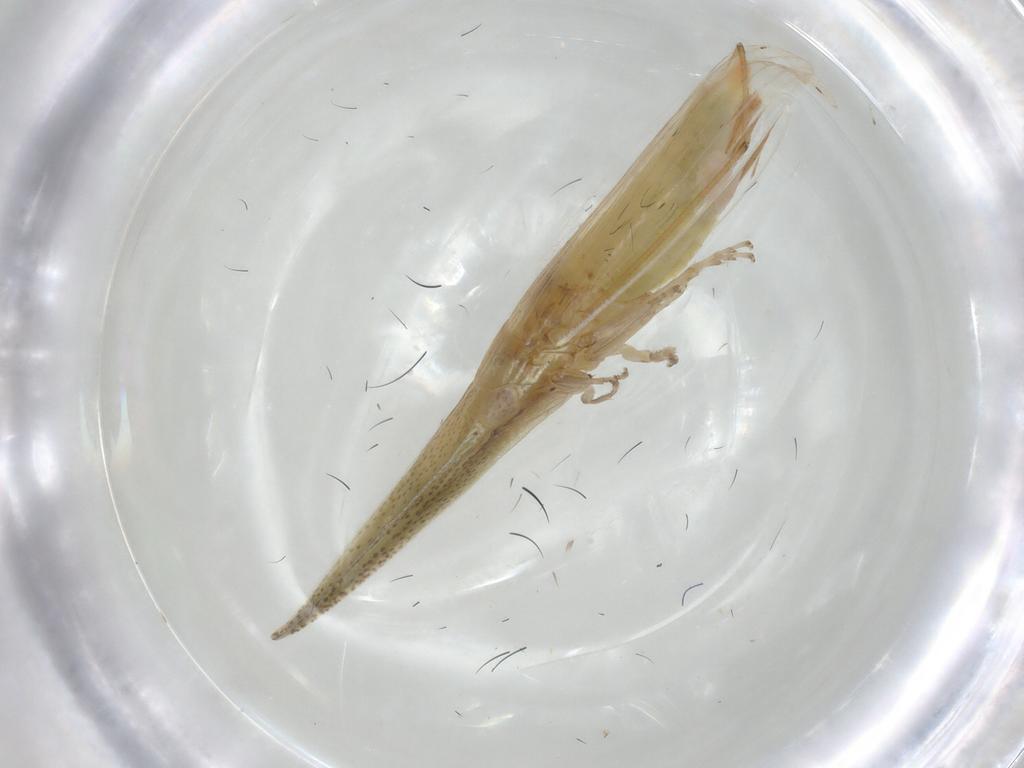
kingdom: Animalia
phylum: Arthropoda
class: Insecta
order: Hemiptera
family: Cicadellidae
